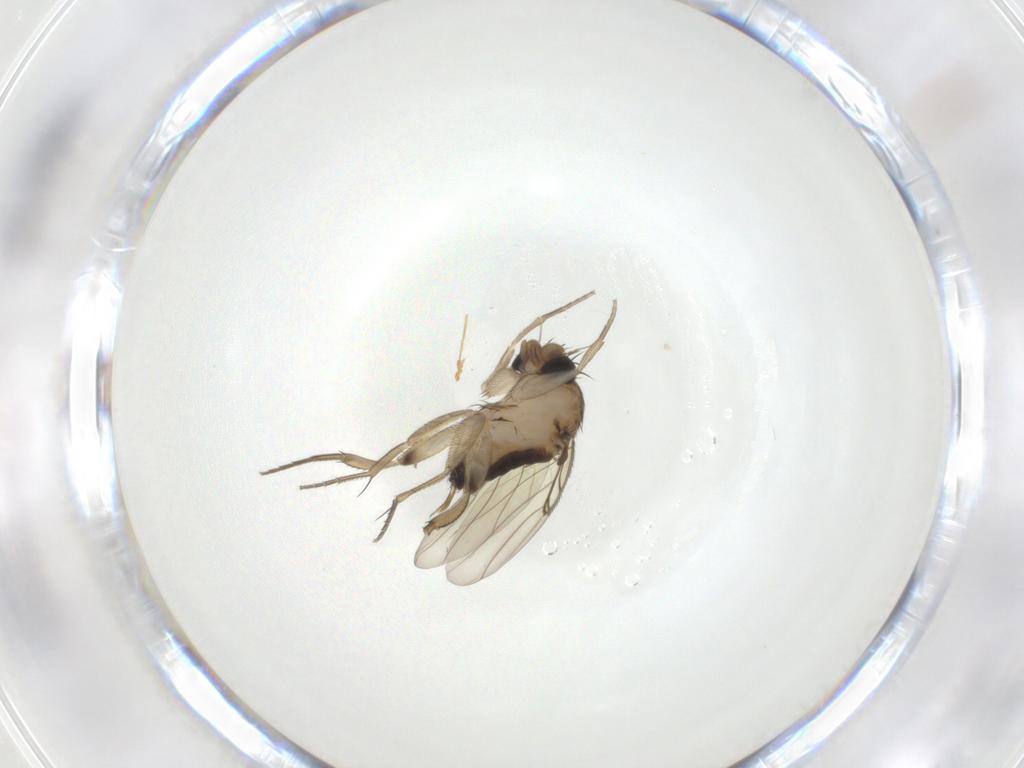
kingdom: Animalia
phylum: Arthropoda
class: Insecta
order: Diptera
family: Phoridae
